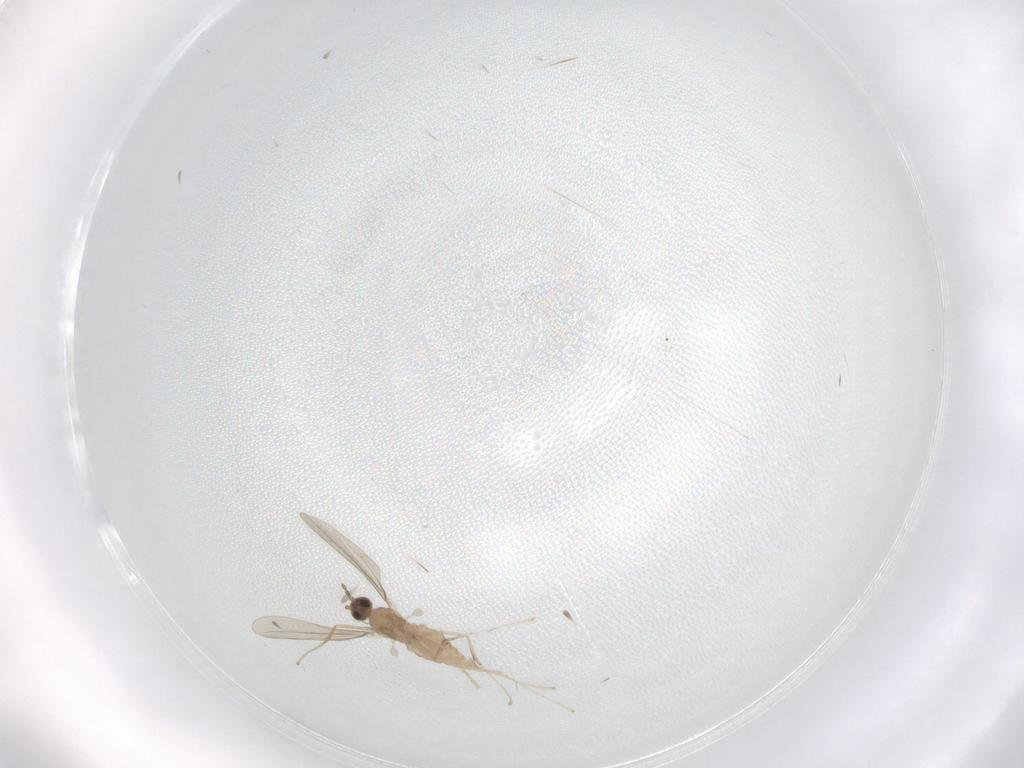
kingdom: Animalia
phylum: Arthropoda
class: Insecta
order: Diptera
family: Cecidomyiidae
